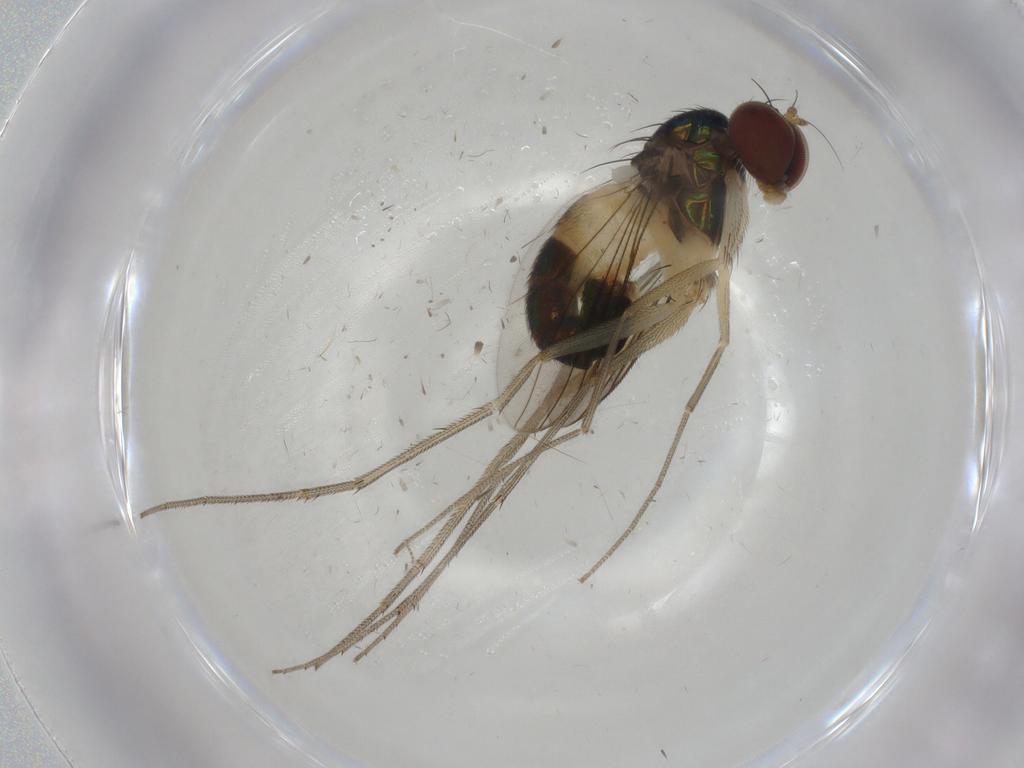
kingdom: Animalia
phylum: Arthropoda
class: Insecta
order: Diptera
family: Dolichopodidae
